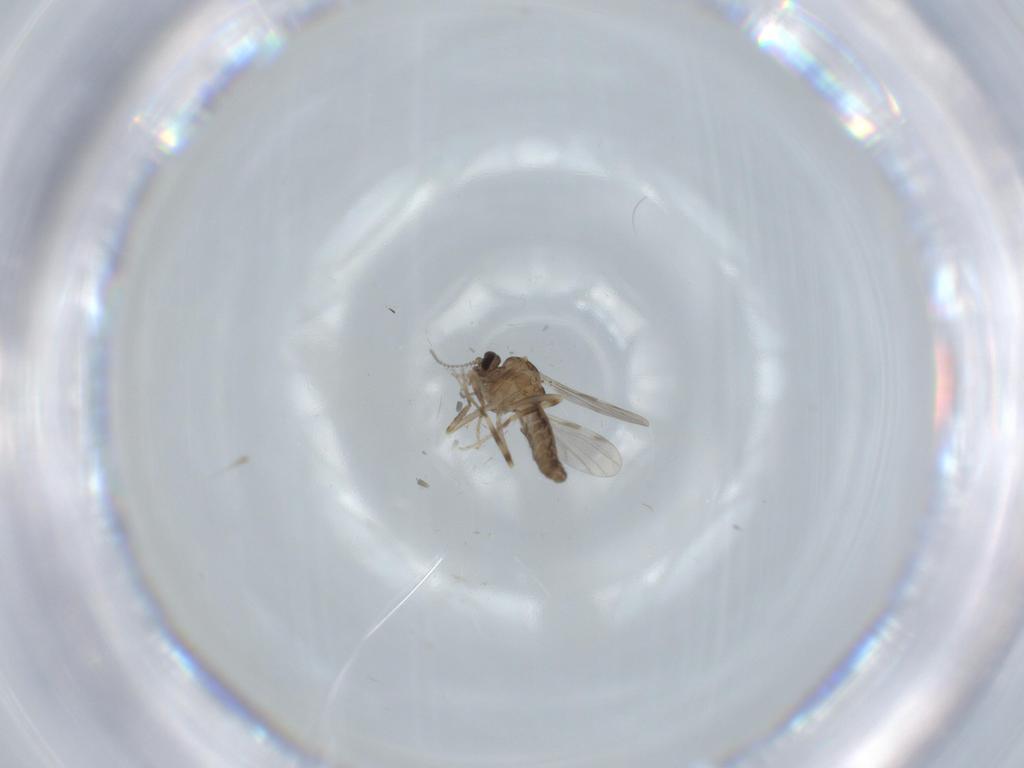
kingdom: Animalia
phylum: Arthropoda
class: Insecta
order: Diptera
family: Ceratopogonidae
